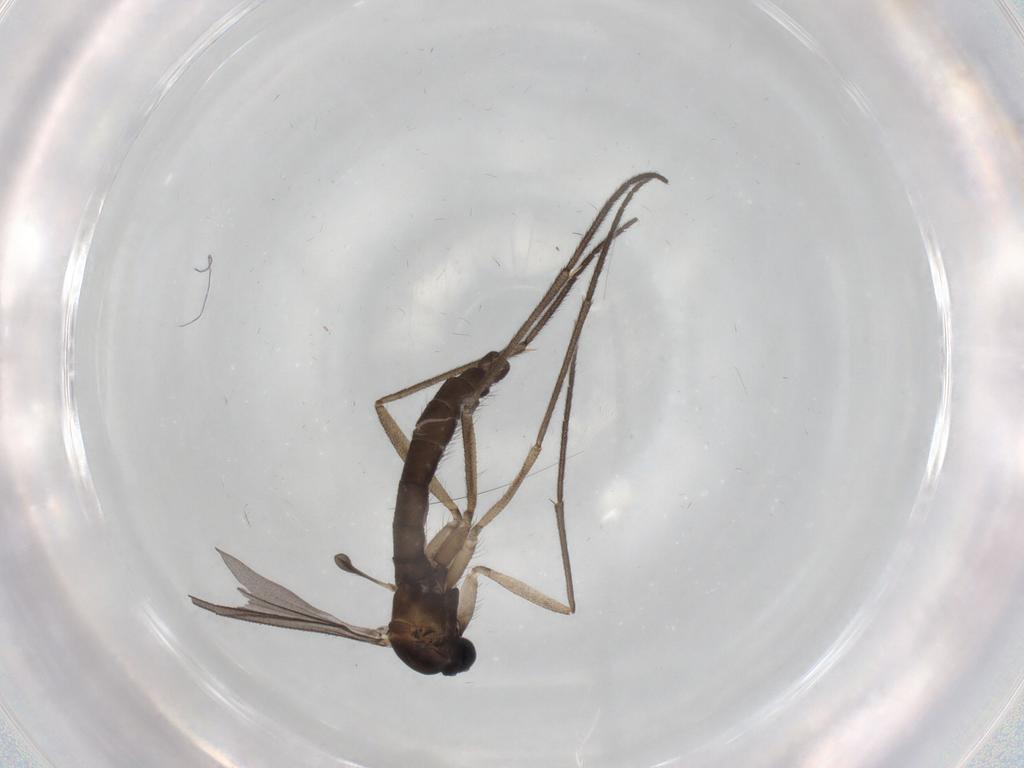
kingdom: Animalia
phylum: Arthropoda
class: Insecta
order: Diptera
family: Sciaridae
